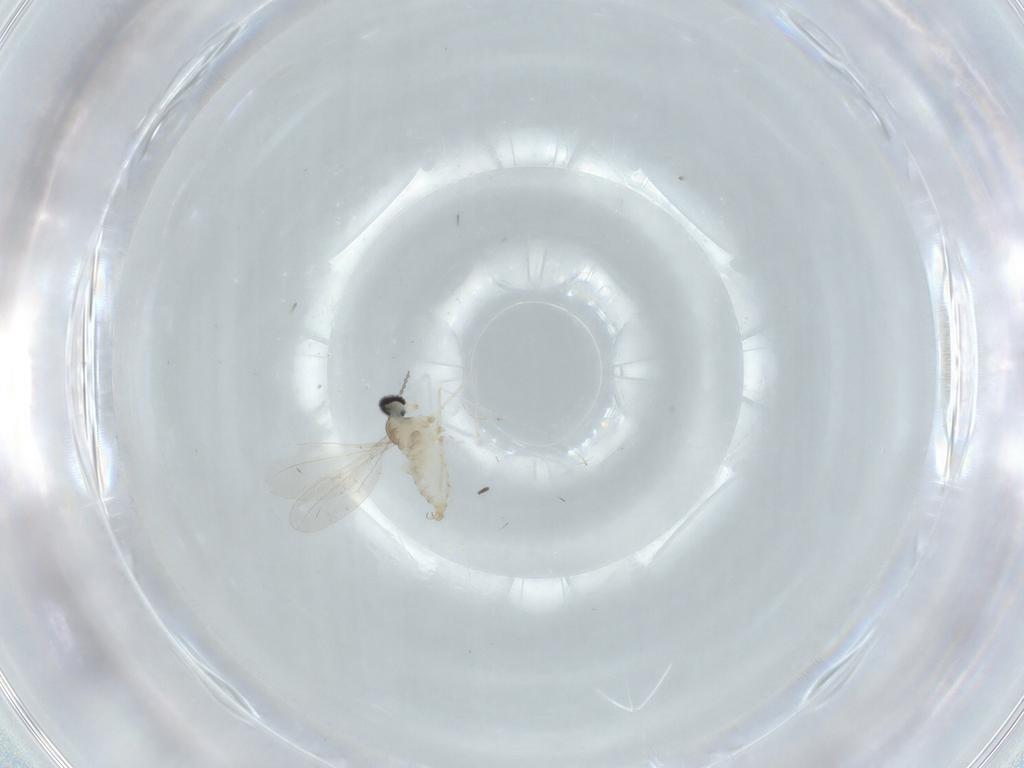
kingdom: Animalia
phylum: Arthropoda
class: Insecta
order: Diptera
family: Cecidomyiidae
